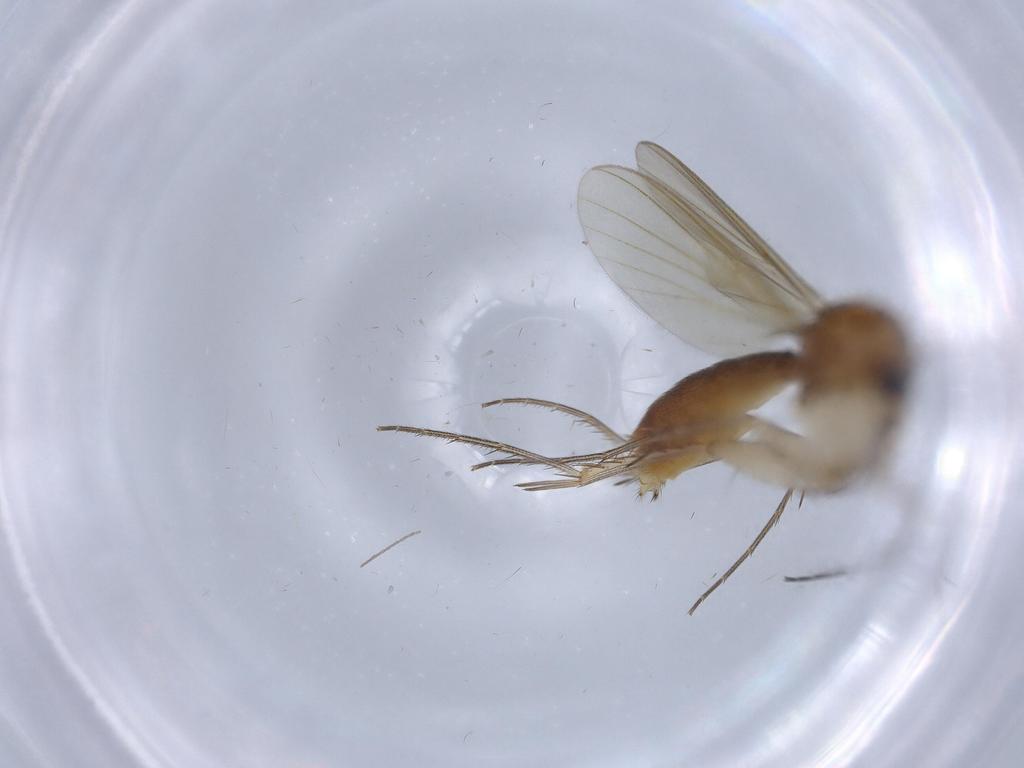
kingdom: Animalia
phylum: Arthropoda
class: Insecta
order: Diptera
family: Mycetophilidae
